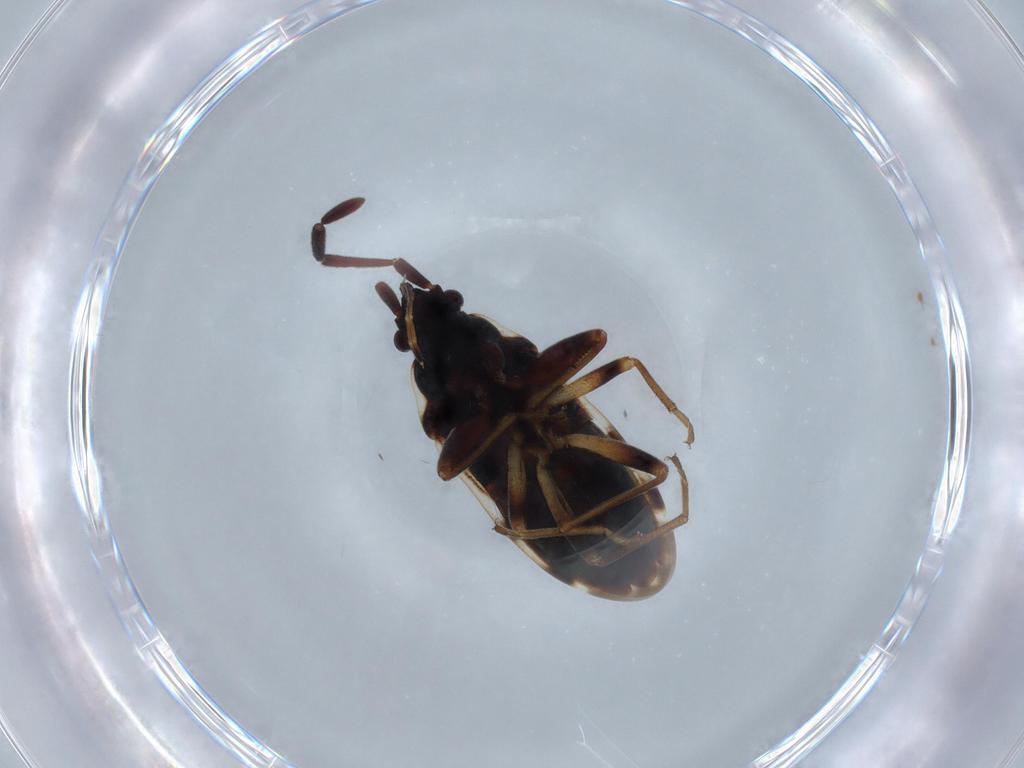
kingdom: Animalia
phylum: Arthropoda
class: Insecta
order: Hemiptera
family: Rhyparochromidae
